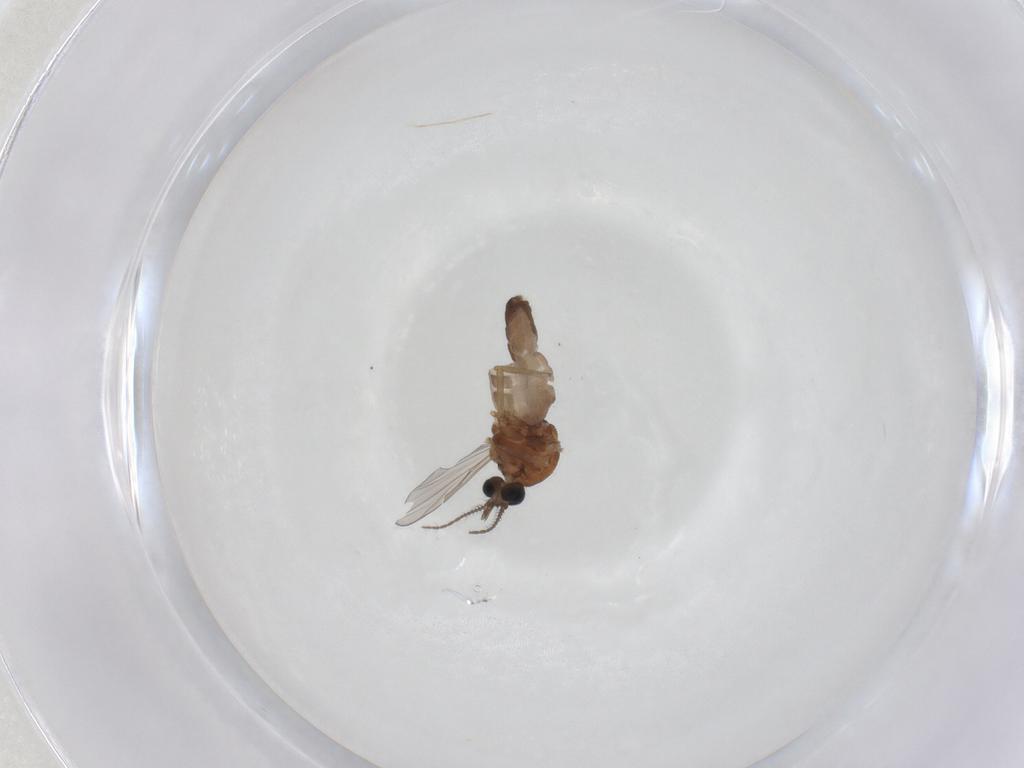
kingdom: Animalia
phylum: Arthropoda
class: Insecta
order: Diptera
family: Ceratopogonidae
